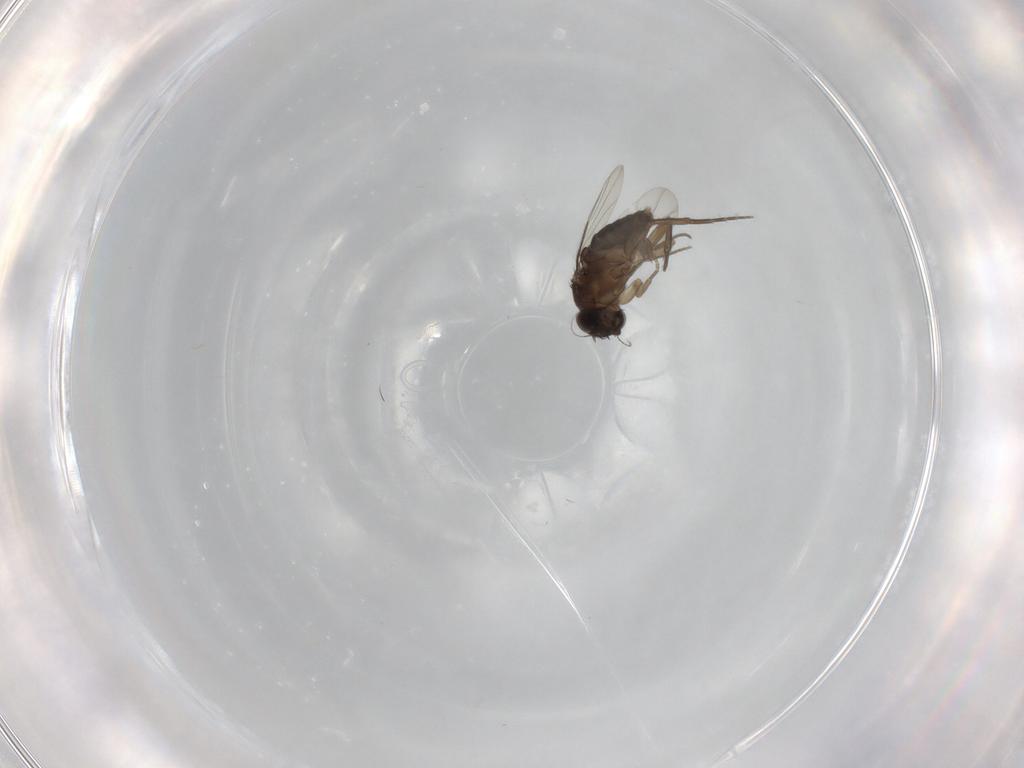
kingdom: Animalia
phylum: Arthropoda
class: Insecta
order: Diptera
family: Phoridae
